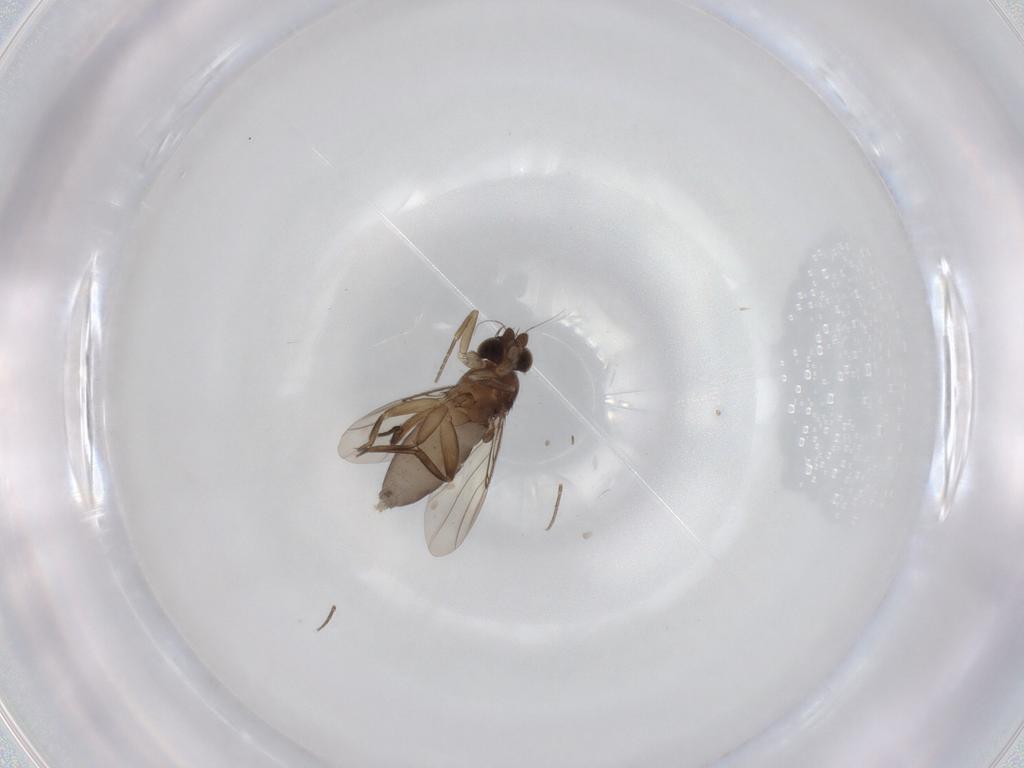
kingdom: Animalia
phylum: Arthropoda
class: Insecta
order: Diptera
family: Phoridae
